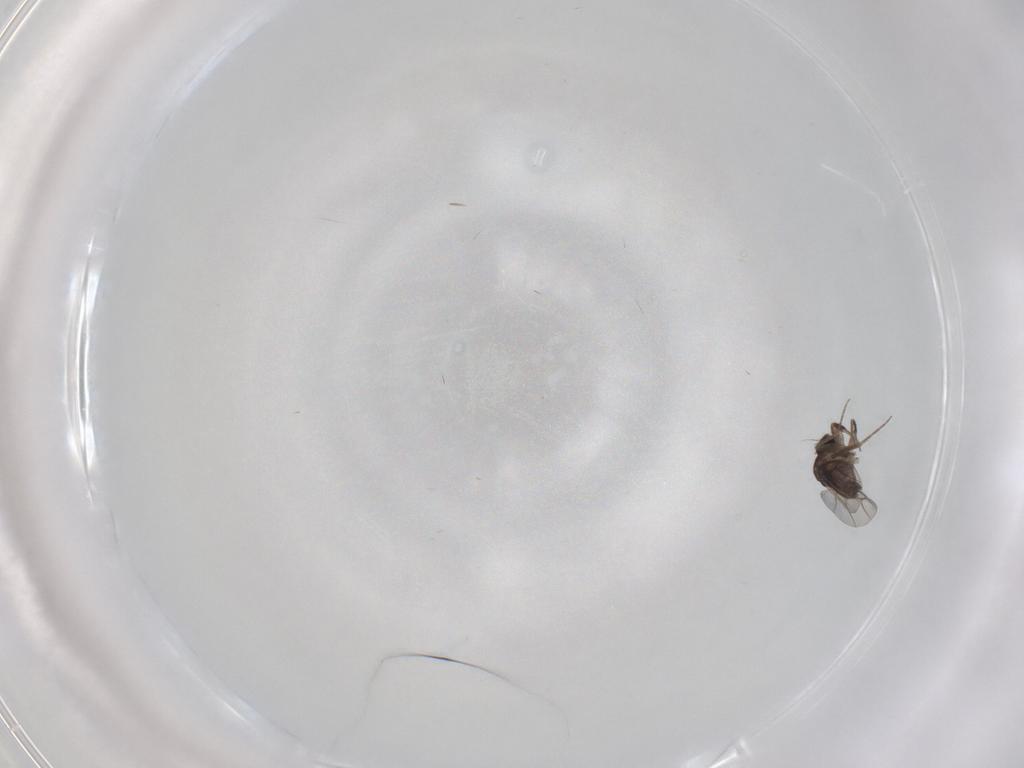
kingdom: Animalia
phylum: Arthropoda
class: Insecta
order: Diptera
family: Phoridae
